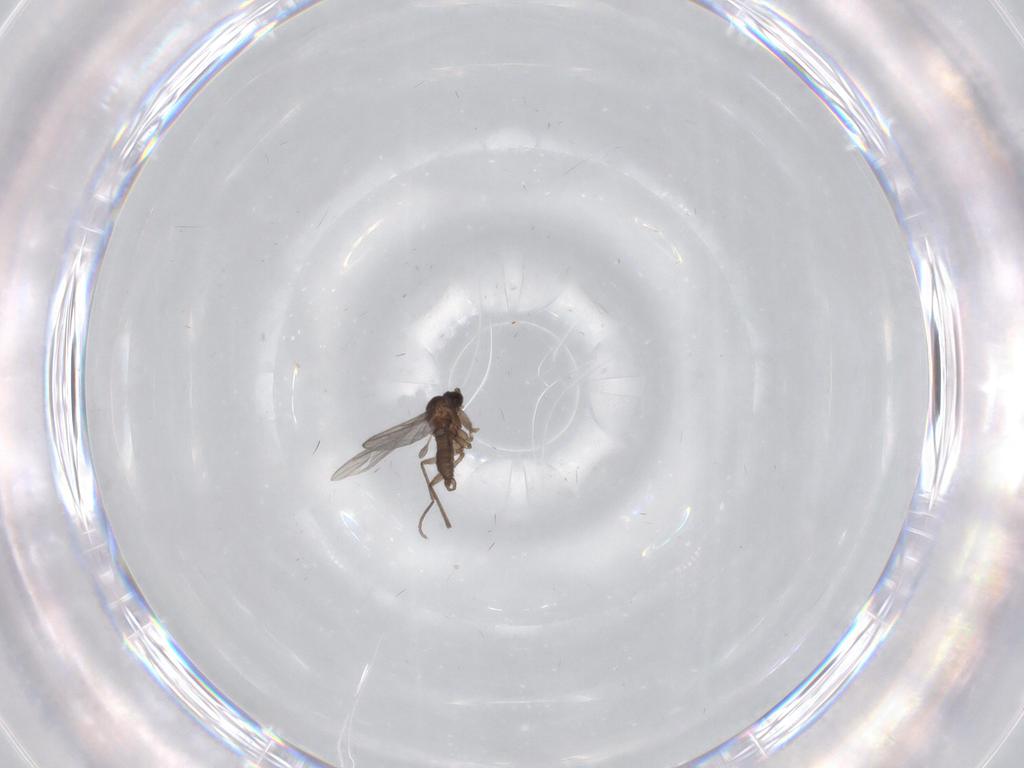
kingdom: Animalia
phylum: Arthropoda
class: Insecta
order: Diptera
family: Sciaridae
